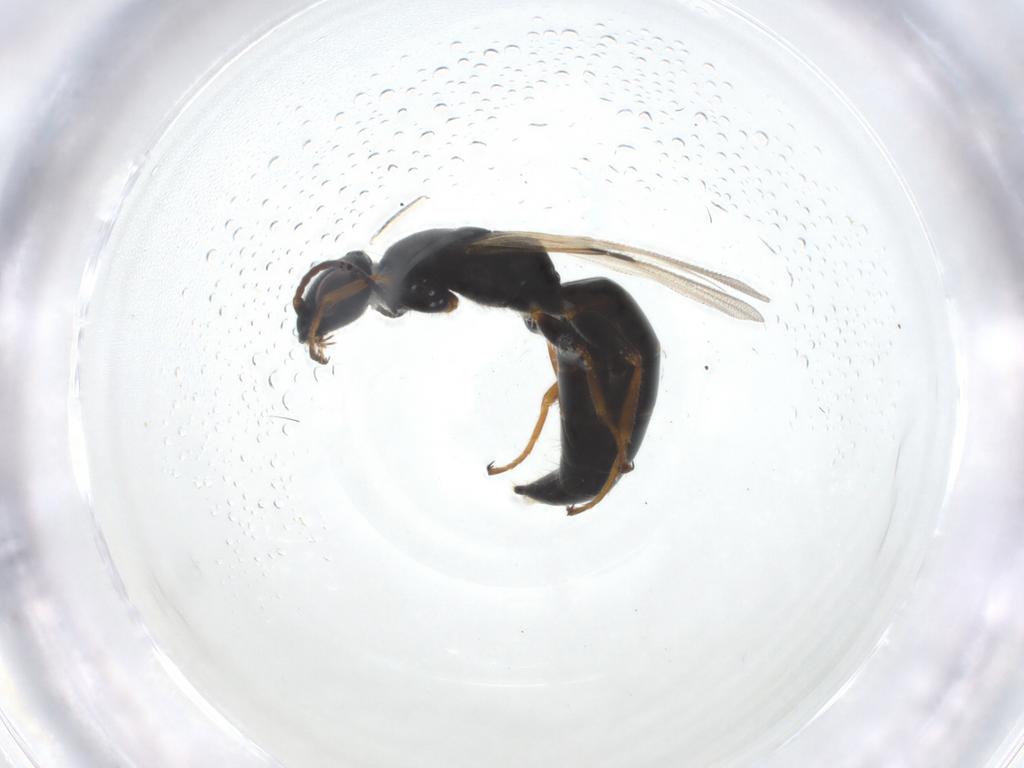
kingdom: Animalia
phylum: Arthropoda
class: Insecta
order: Hymenoptera
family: Bethylidae
